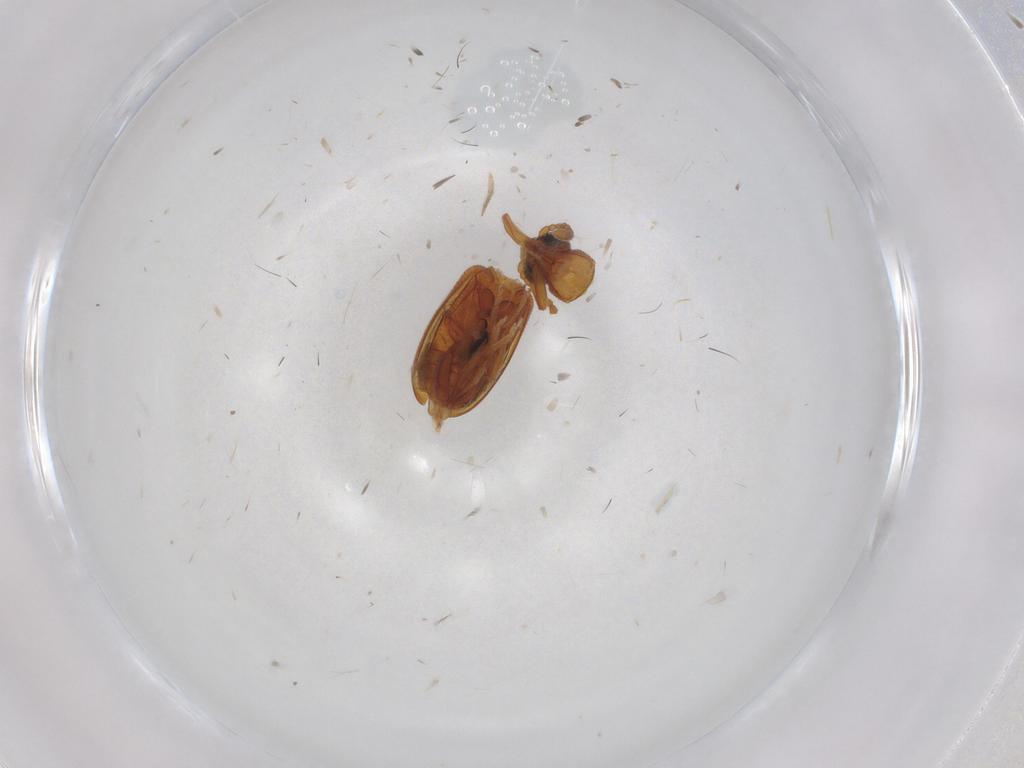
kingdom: Animalia
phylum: Arthropoda
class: Insecta
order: Coleoptera
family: Aderidae
